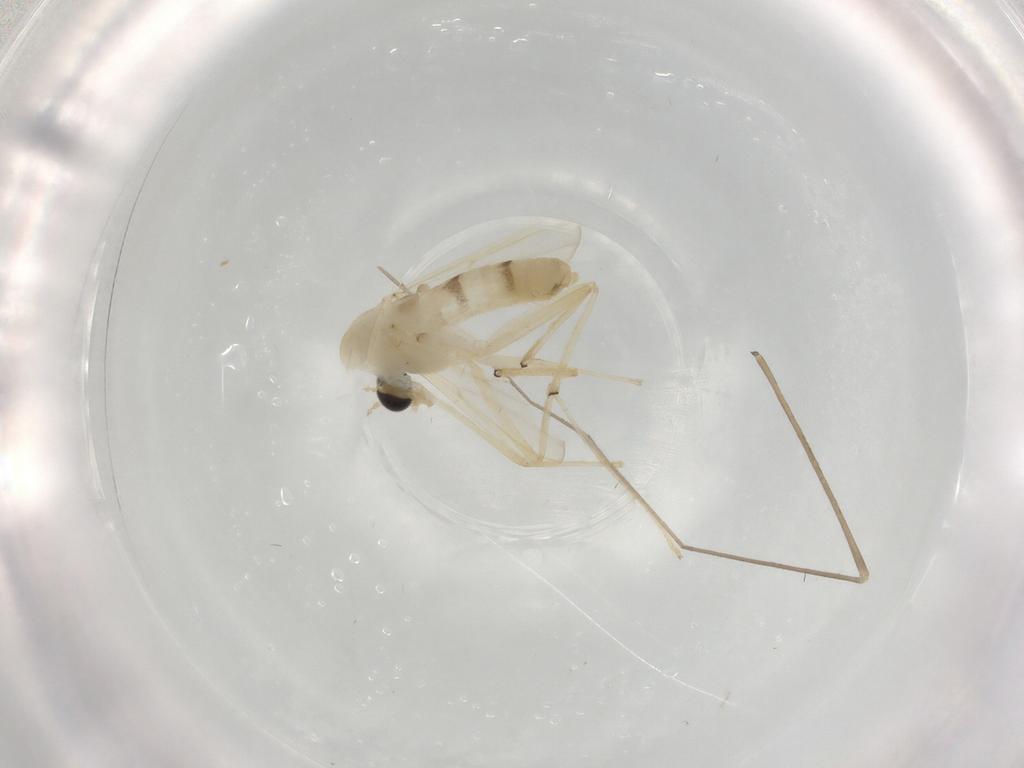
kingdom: Animalia
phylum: Arthropoda
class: Insecta
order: Diptera
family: Chironomidae
